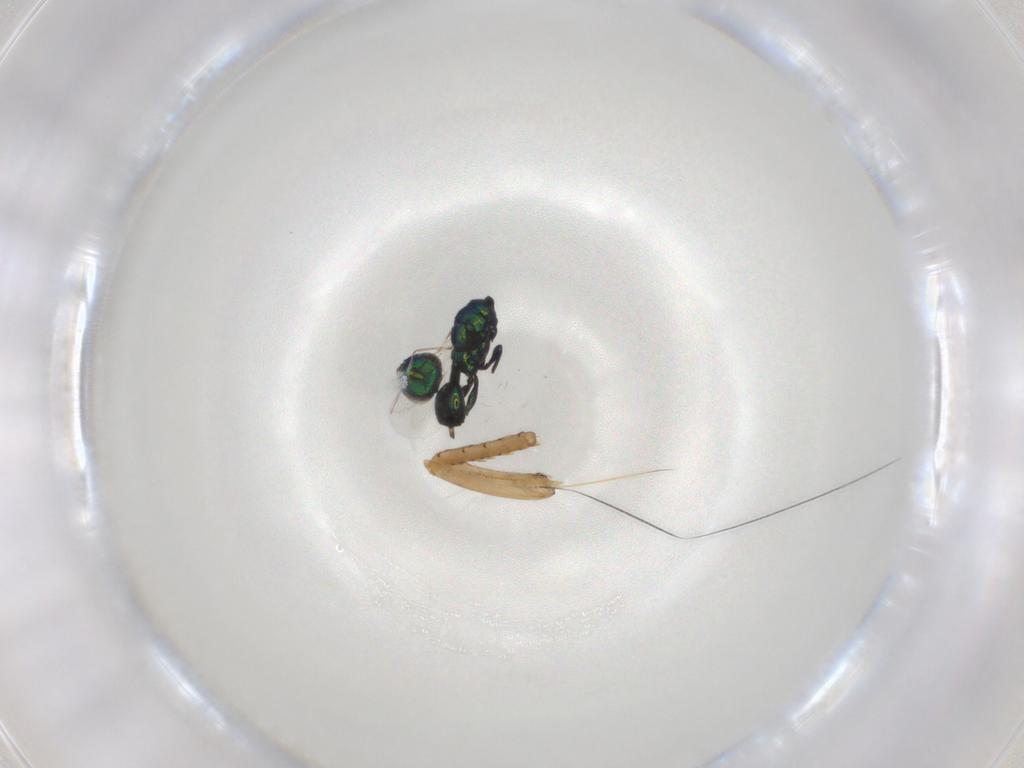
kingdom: Animalia
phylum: Arthropoda
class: Insecta
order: Hymenoptera
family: Eulophidae
